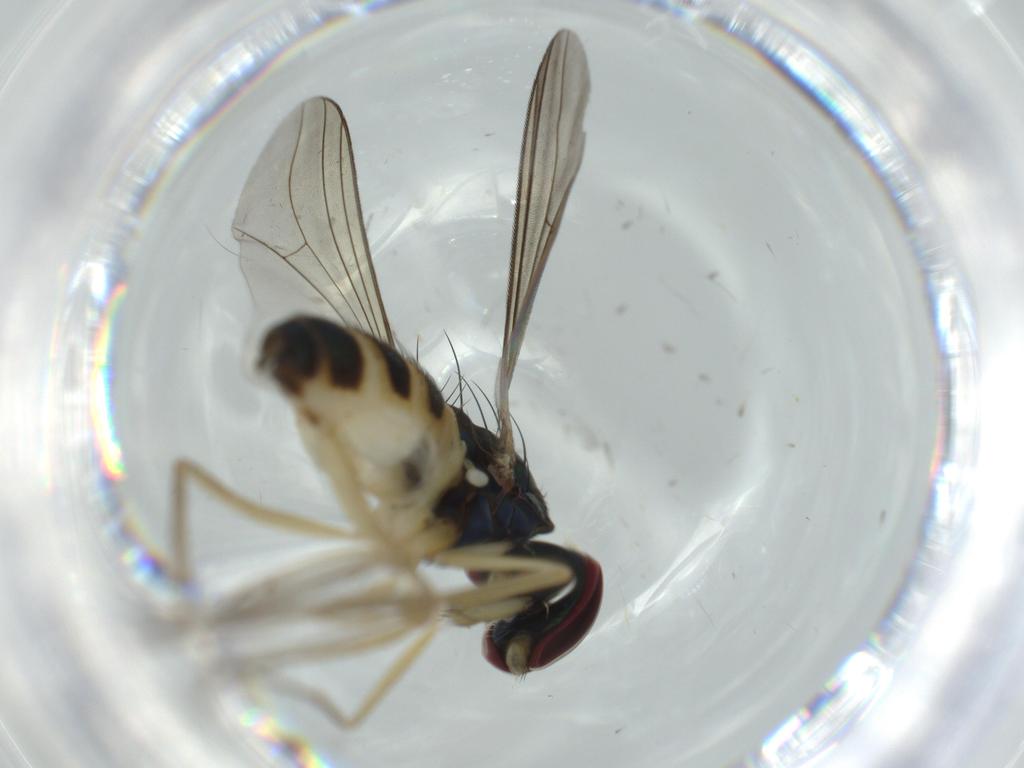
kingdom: Animalia
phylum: Arthropoda
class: Insecta
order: Diptera
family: Dolichopodidae
